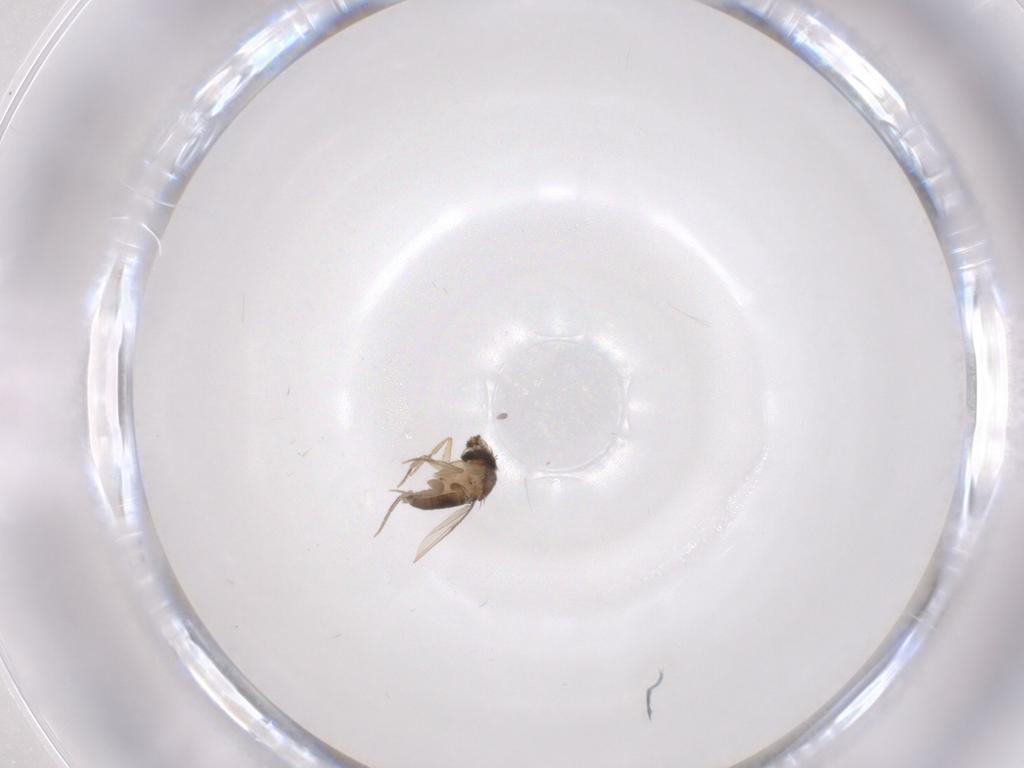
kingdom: Animalia
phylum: Arthropoda
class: Insecta
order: Diptera
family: Phoridae
